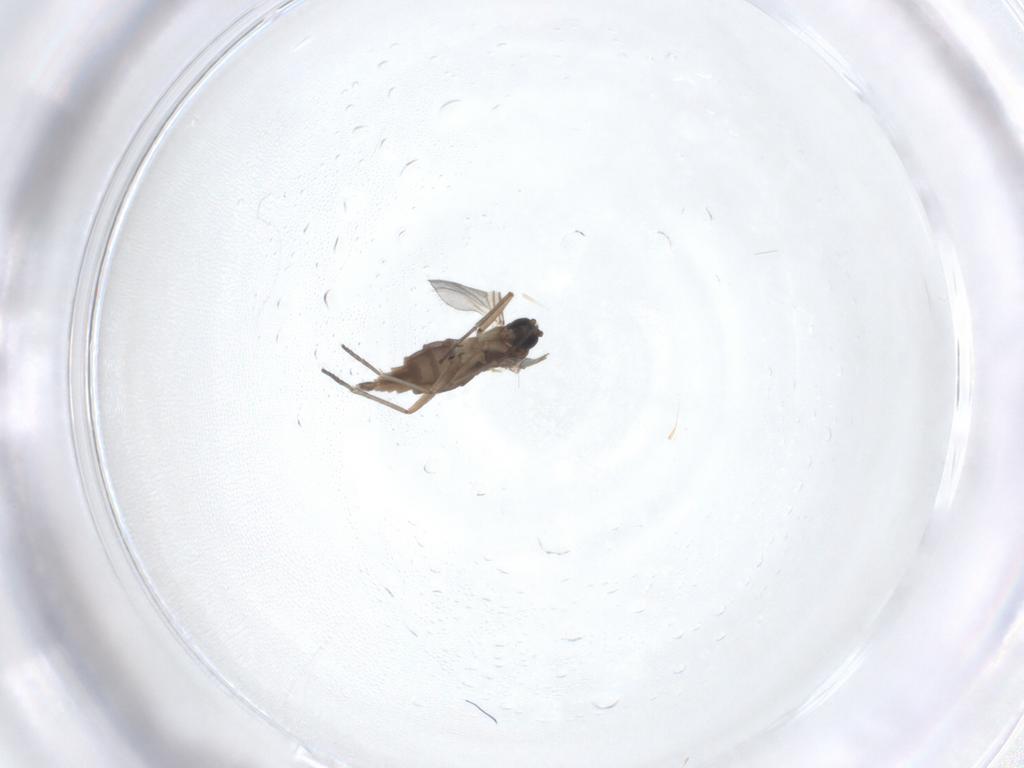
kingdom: Animalia
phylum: Arthropoda
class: Insecta
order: Diptera
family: Sciaridae
